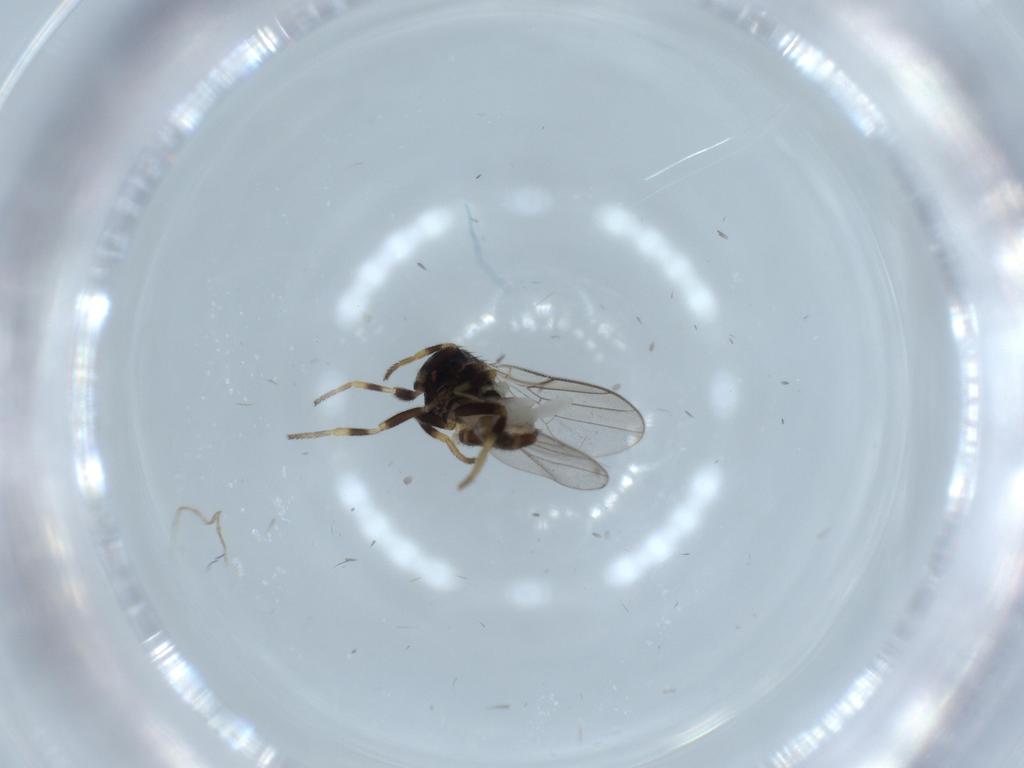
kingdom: Animalia
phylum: Arthropoda
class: Insecta
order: Diptera
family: Chloropidae
